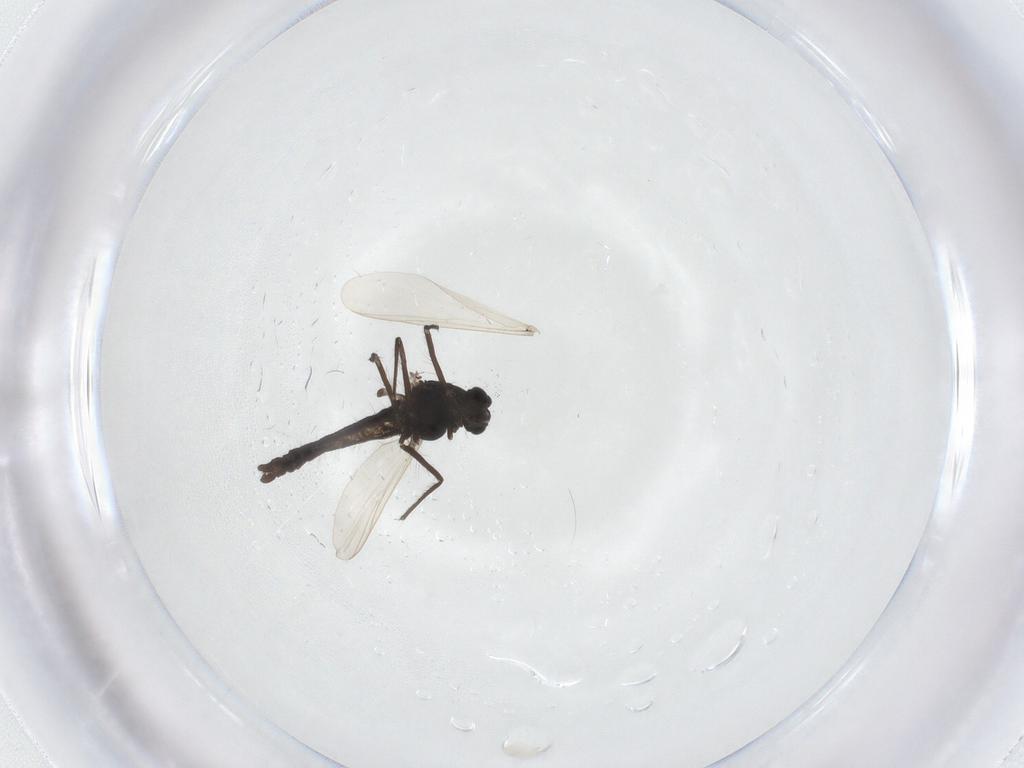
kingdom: Animalia
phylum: Arthropoda
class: Insecta
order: Diptera
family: Chironomidae
